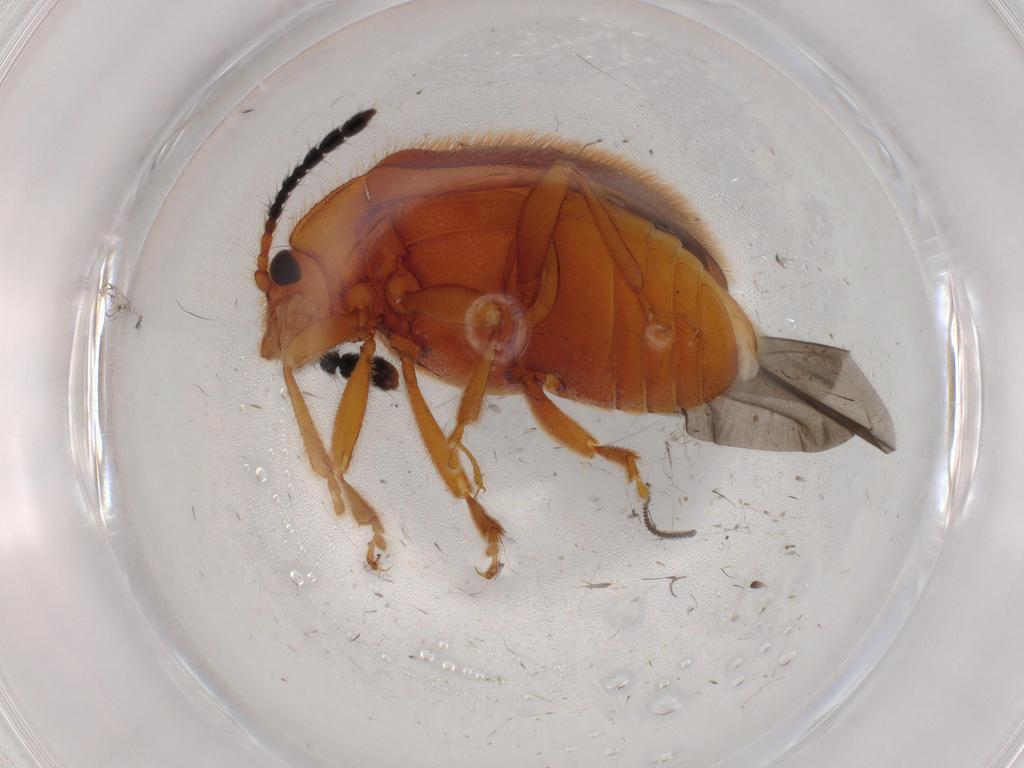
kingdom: Animalia
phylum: Arthropoda
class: Insecta
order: Coleoptera
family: Endomychidae
